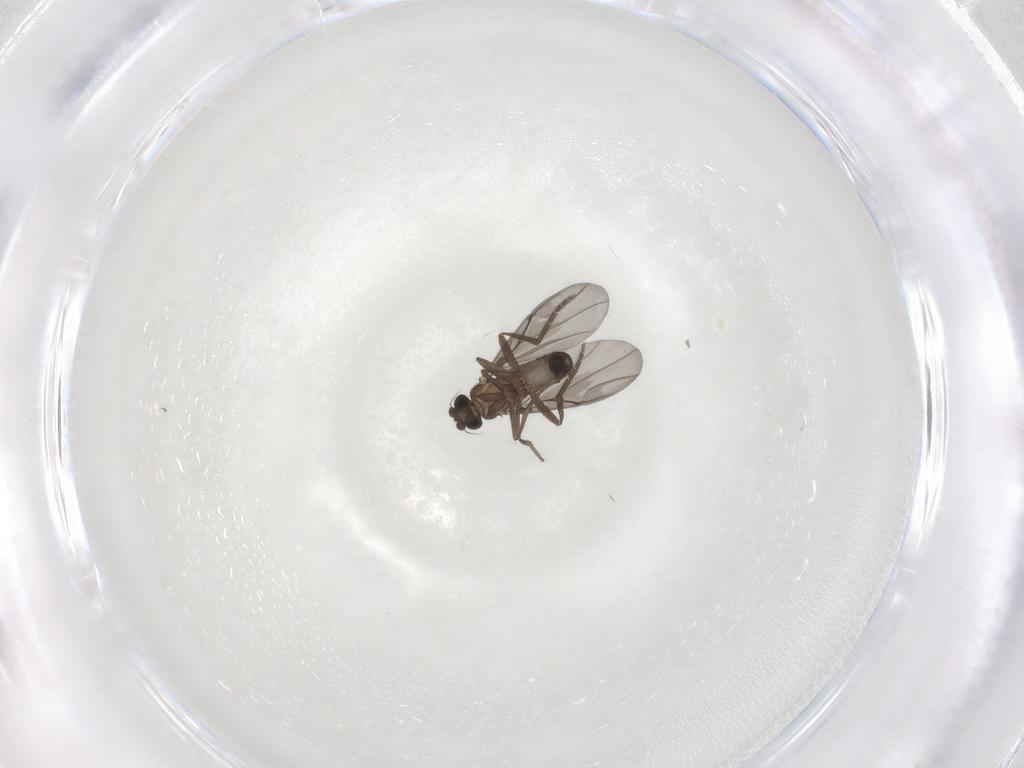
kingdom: Animalia
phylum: Arthropoda
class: Insecta
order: Diptera
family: Phoridae
